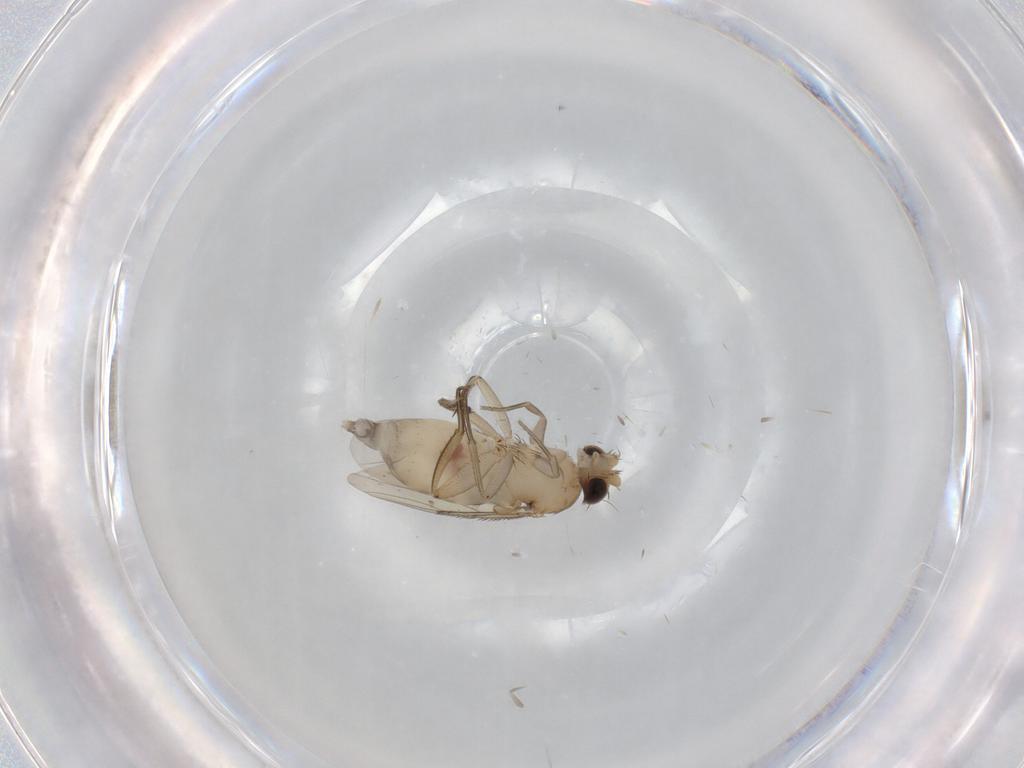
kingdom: Animalia
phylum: Arthropoda
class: Insecta
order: Diptera
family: Phoridae
